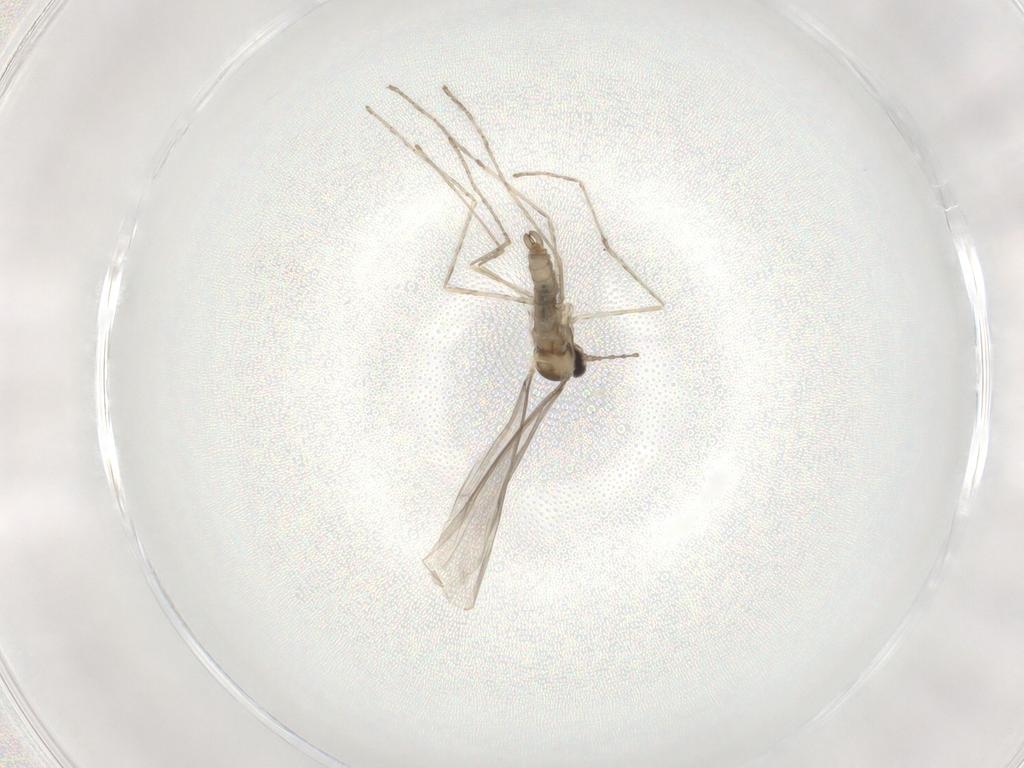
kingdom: Animalia
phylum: Arthropoda
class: Insecta
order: Diptera
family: Cecidomyiidae
